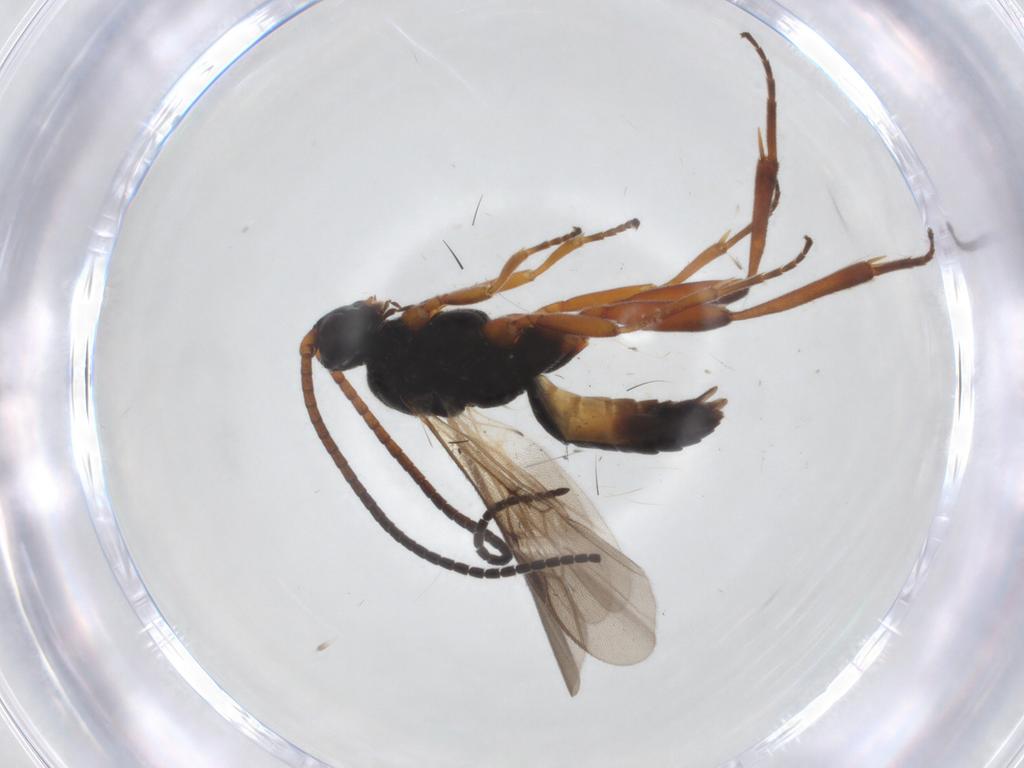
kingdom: Animalia
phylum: Arthropoda
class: Insecta
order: Hymenoptera
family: Braconidae
